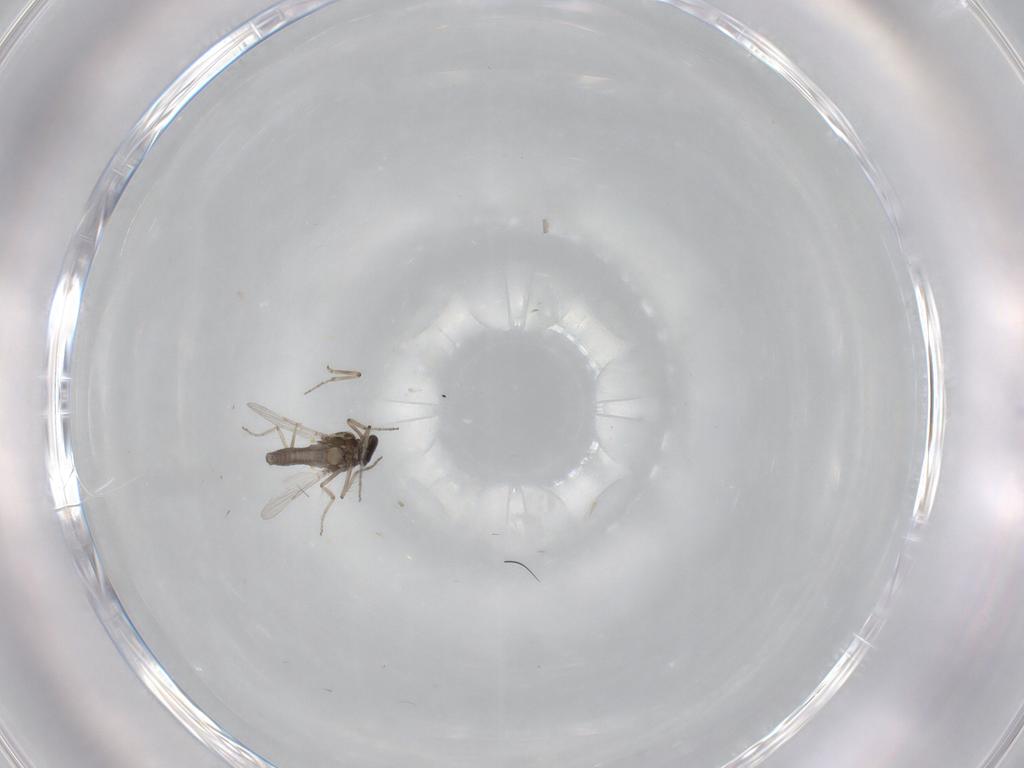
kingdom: Animalia
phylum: Arthropoda
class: Insecta
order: Diptera
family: Ceratopogonidae
